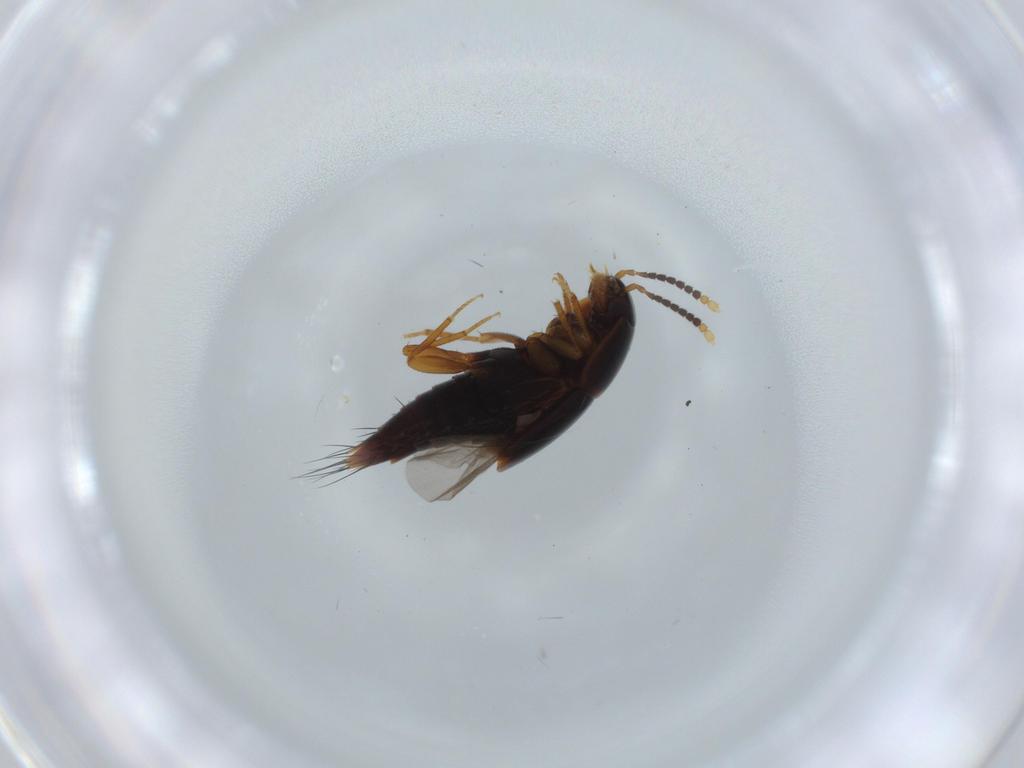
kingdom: Animalia
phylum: Arthropoda
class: Insecta
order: Coleoptera
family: Staphylinidae
